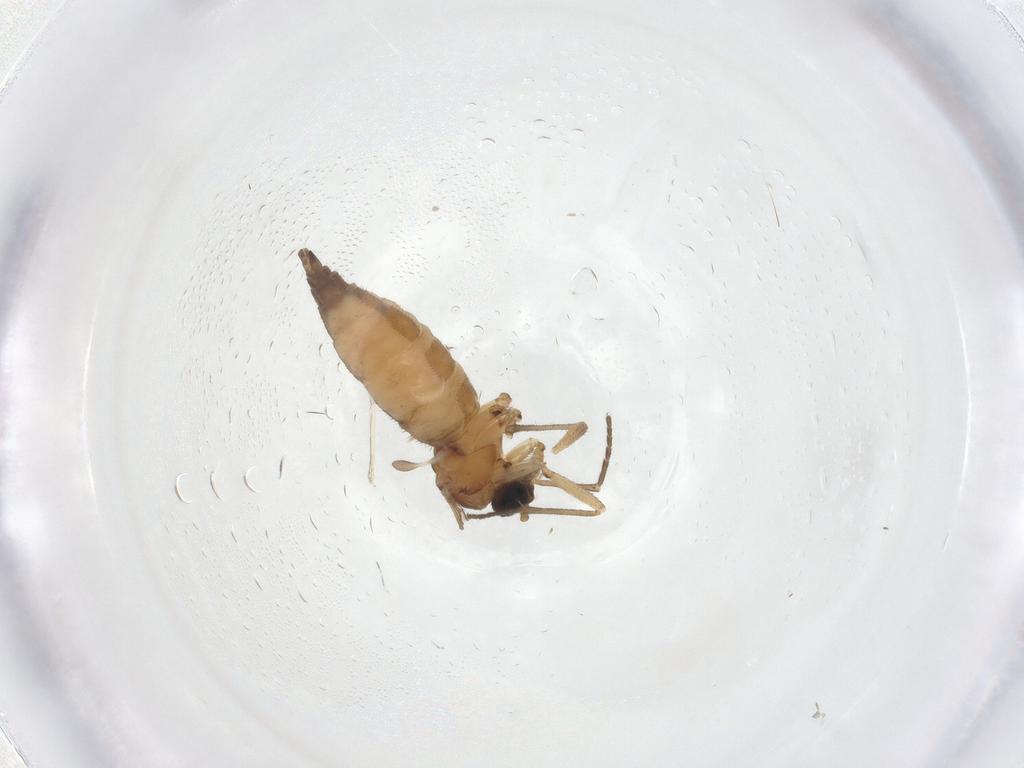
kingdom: Animalia
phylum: Arthropoda
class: Insecta
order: Diptera
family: Sciaridae
